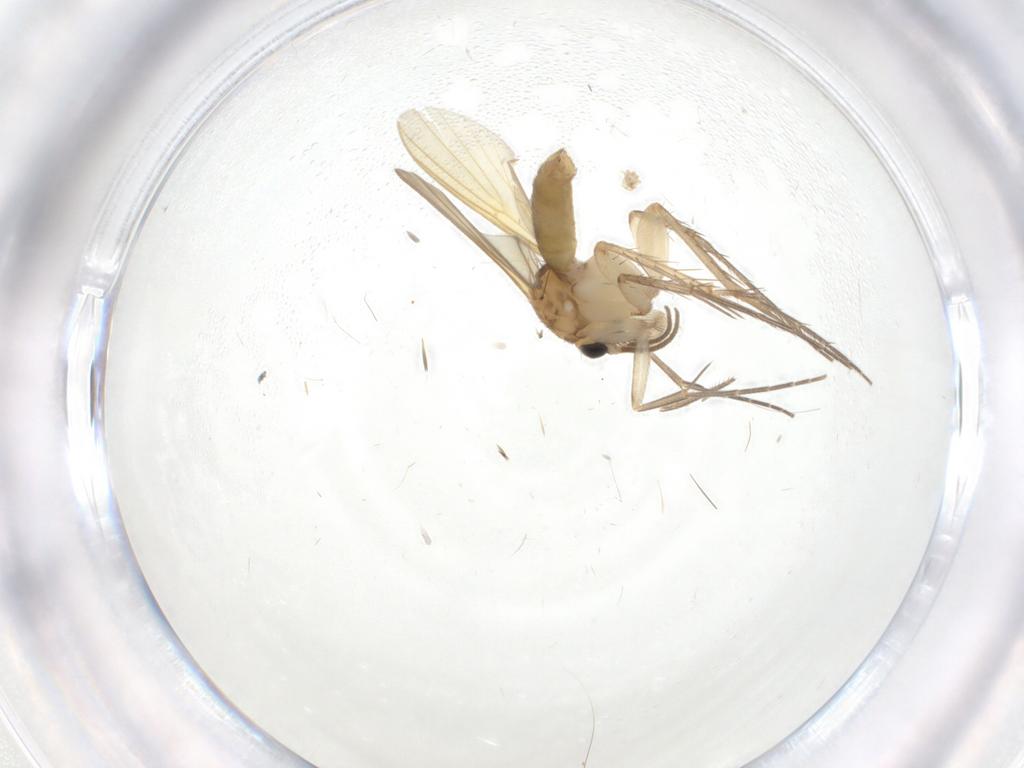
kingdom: Animalia
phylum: Arthropoda
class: Insecta
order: Diptera
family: Mycetophilidae
